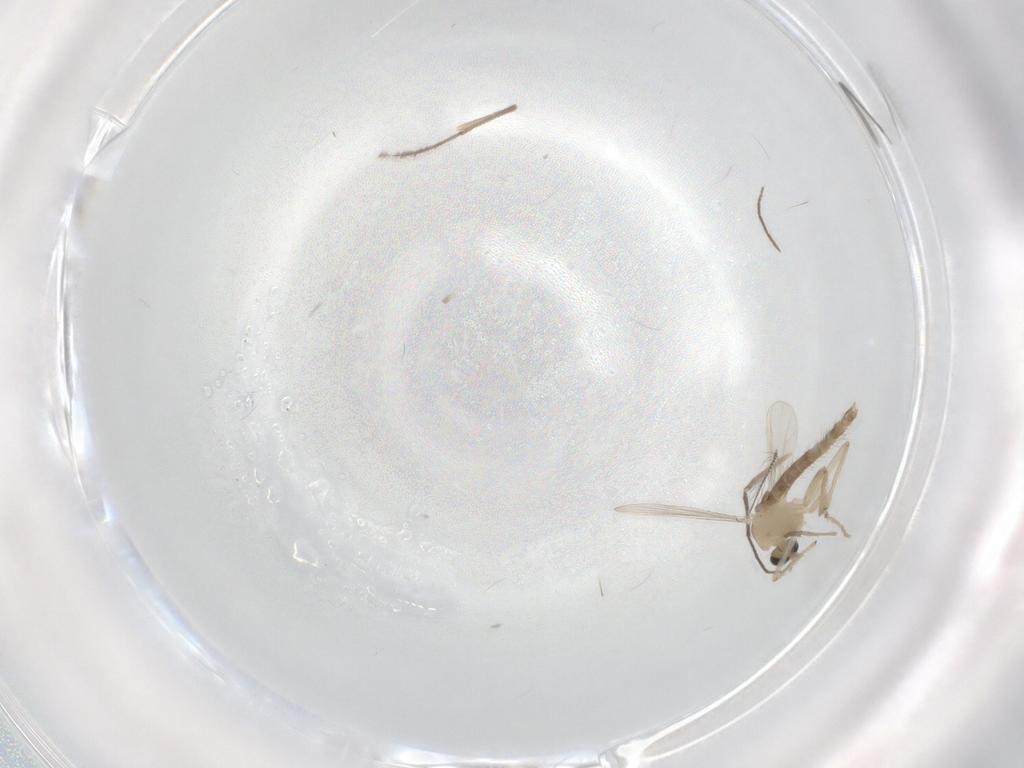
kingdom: Animalia
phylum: Arthropoda
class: Insecta
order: Diptera
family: Chironomidae
